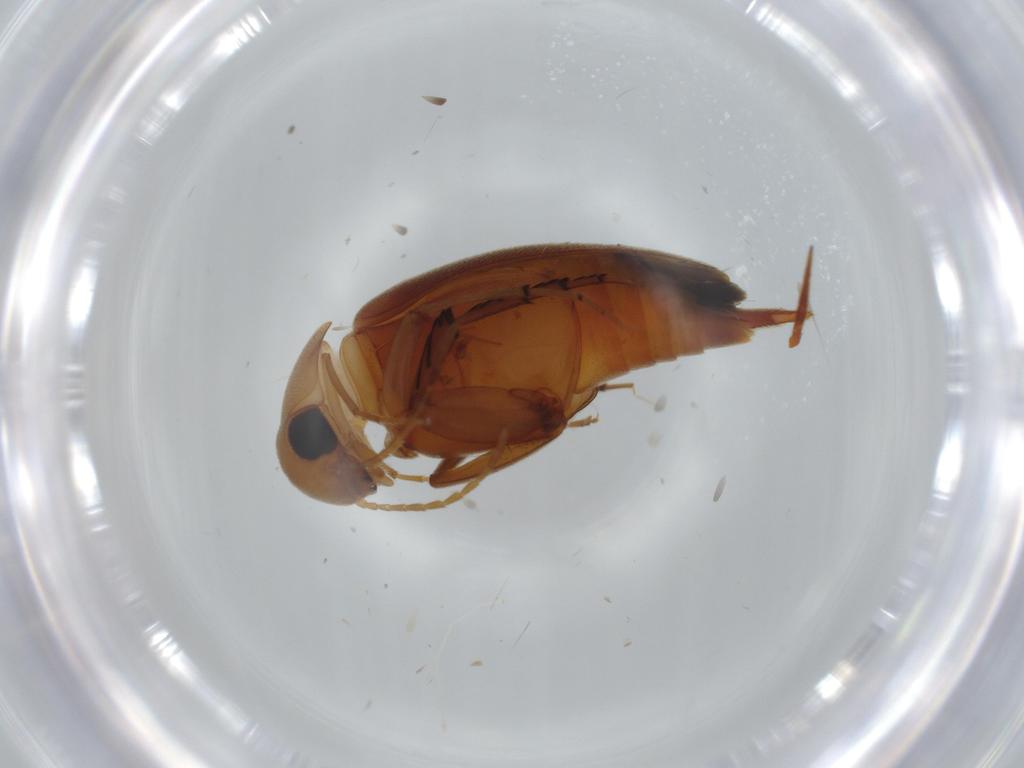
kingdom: Animalia
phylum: Arthropoda
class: Insecta
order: Coleoptera
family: Mordellidae
